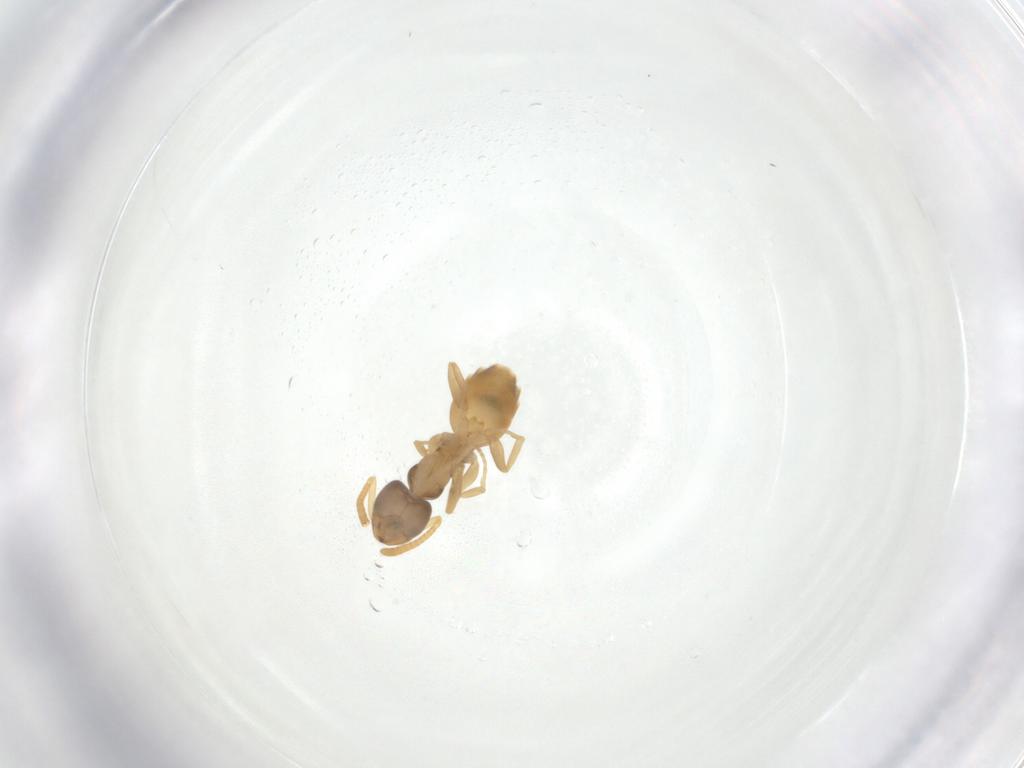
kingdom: Animalia
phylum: Arthropoda
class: Insecta
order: Hymenoptera
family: Formicidae
